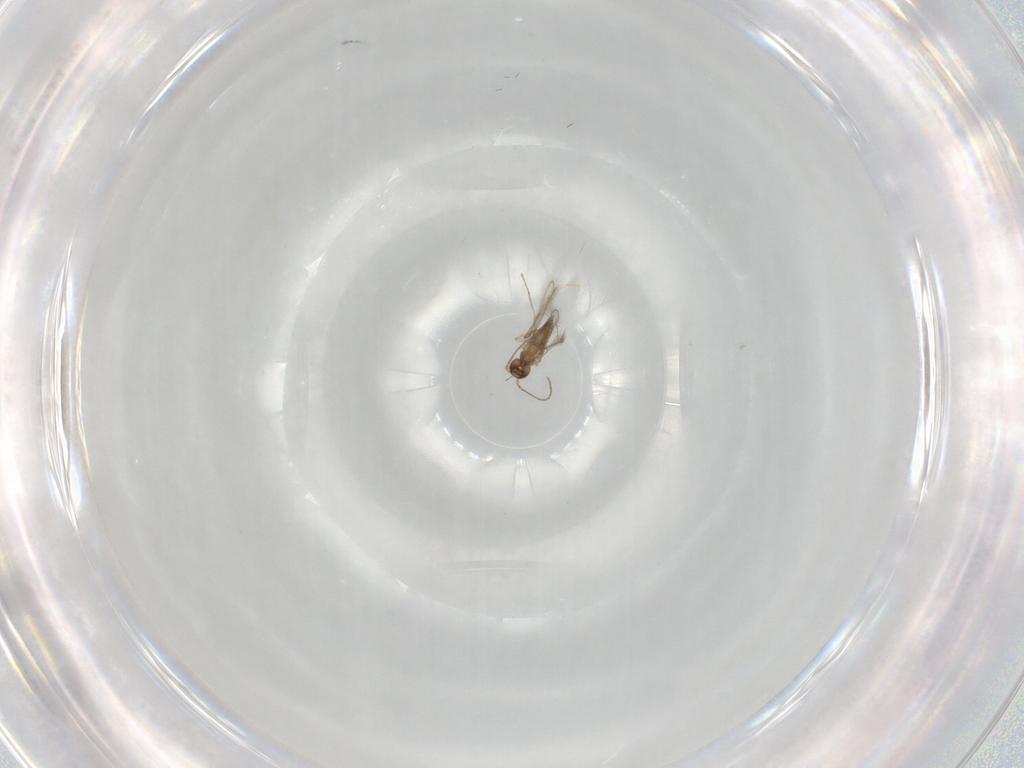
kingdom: Animalia
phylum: Arthropoda
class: Insecta
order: Hymenoptera
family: Mymaridae
